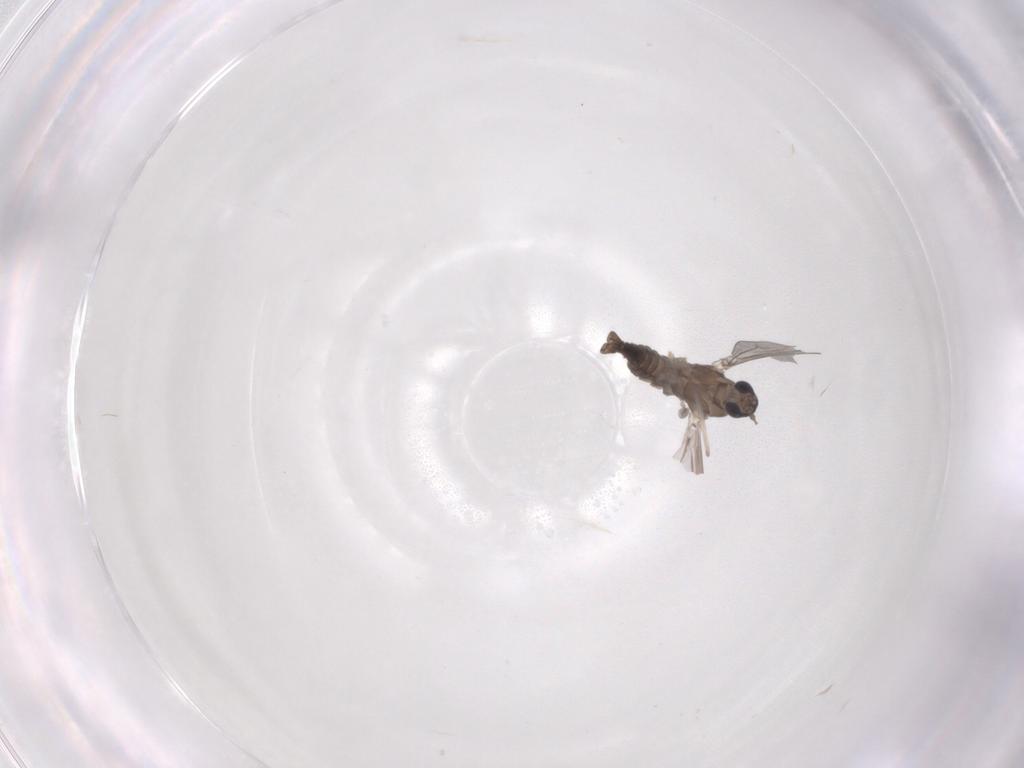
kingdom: Animalia
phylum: Arthropoda
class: Insecta
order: Diptera
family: Cecidomyiidae
